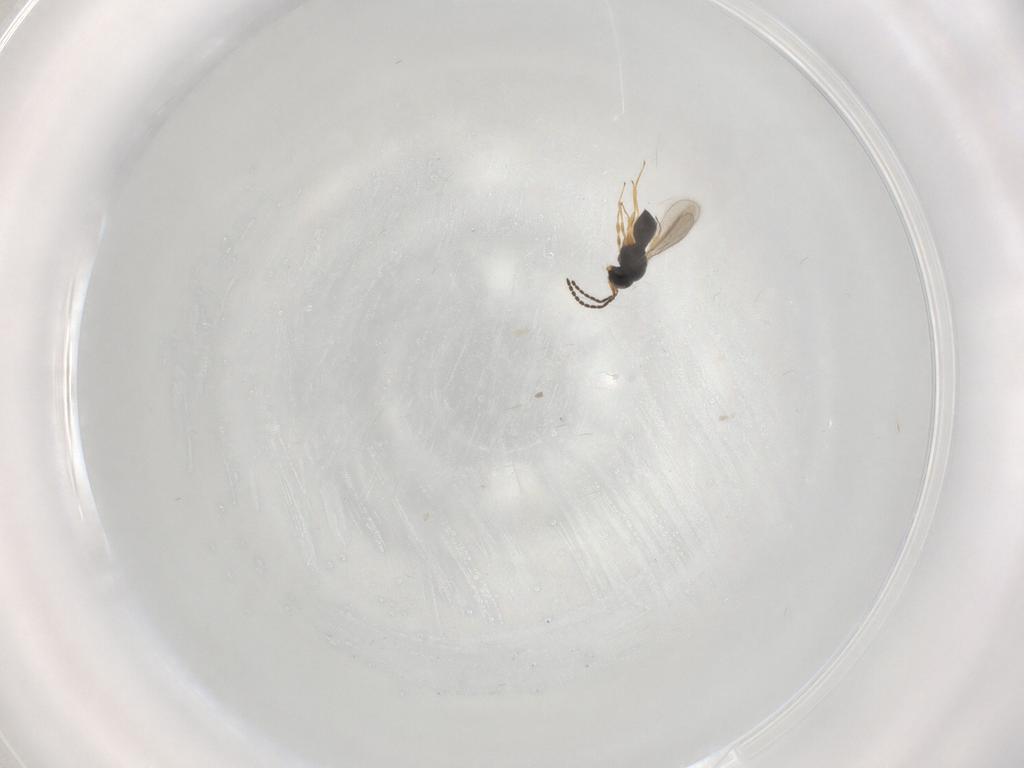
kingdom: Animalia
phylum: Arthropoda
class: Insecta
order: Hymenoptera
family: Scelionidae
